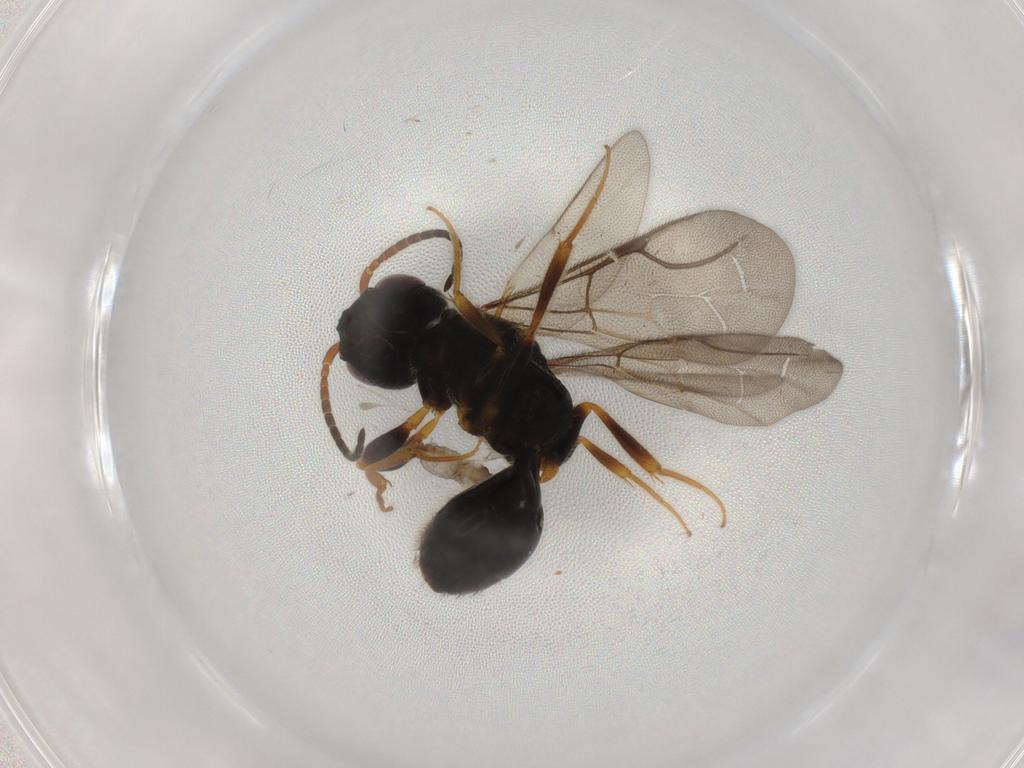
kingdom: Animalia
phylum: Arthropoda
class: Insecta
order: Hymenoptera
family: Bethylidae
